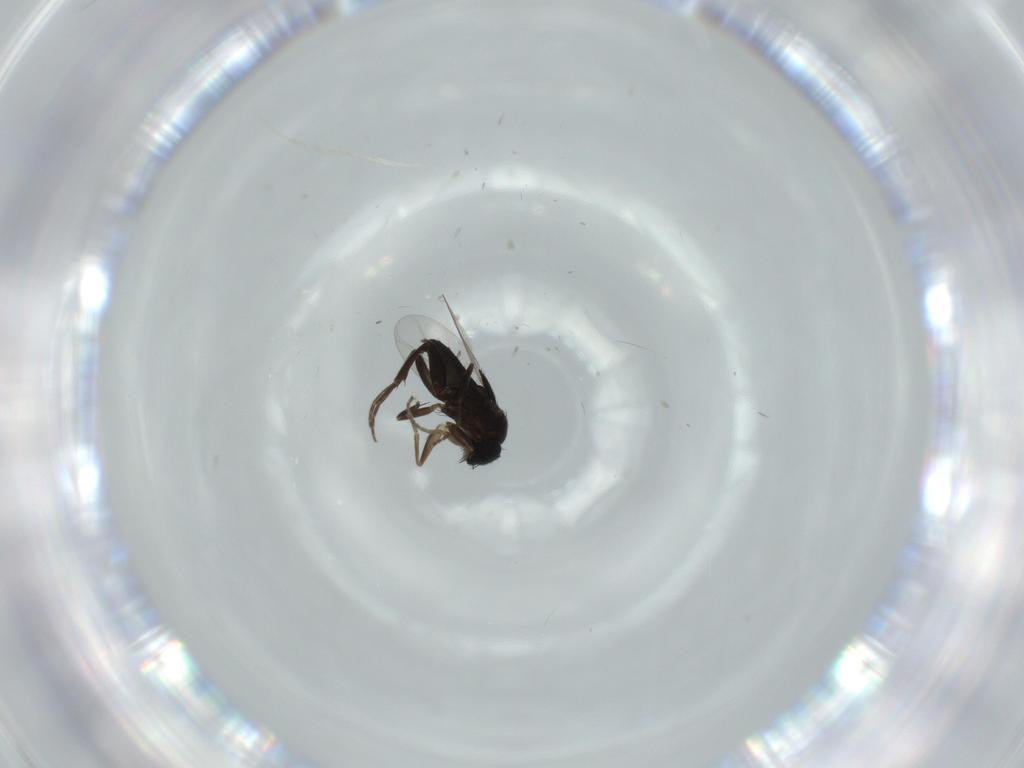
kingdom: Animalia
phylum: Arthropoda
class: Insecta
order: Diptera
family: Phoridae
